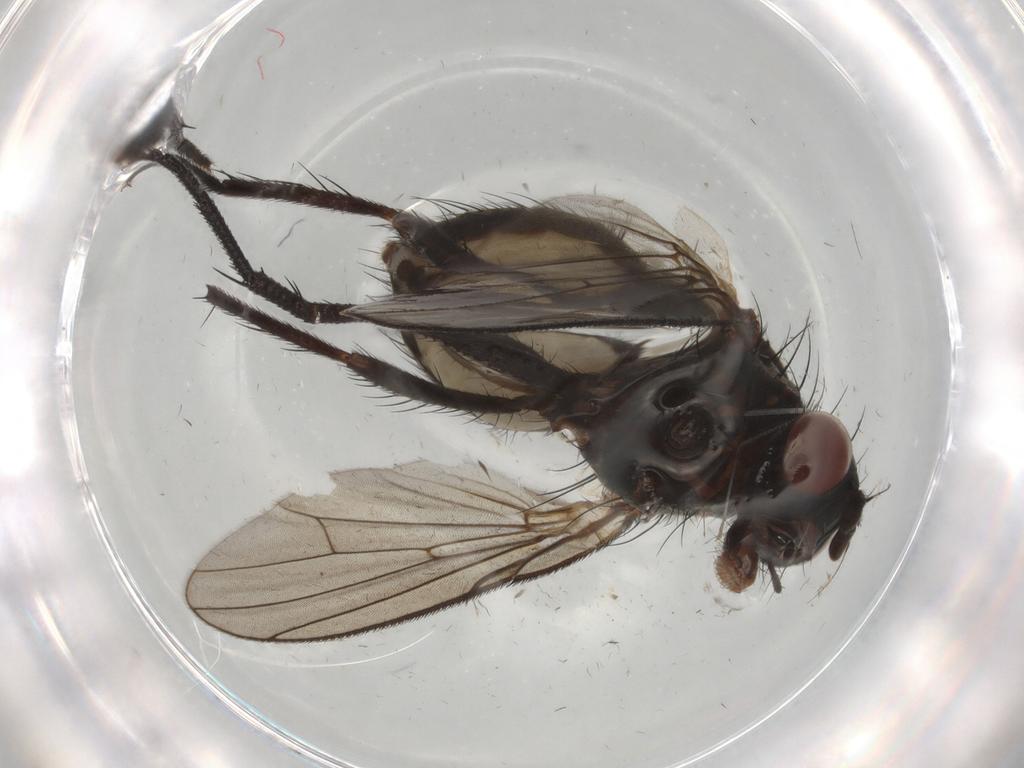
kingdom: Animalia
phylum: Arthropoda
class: Insecta
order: Diptera
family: Anthomyiidae
